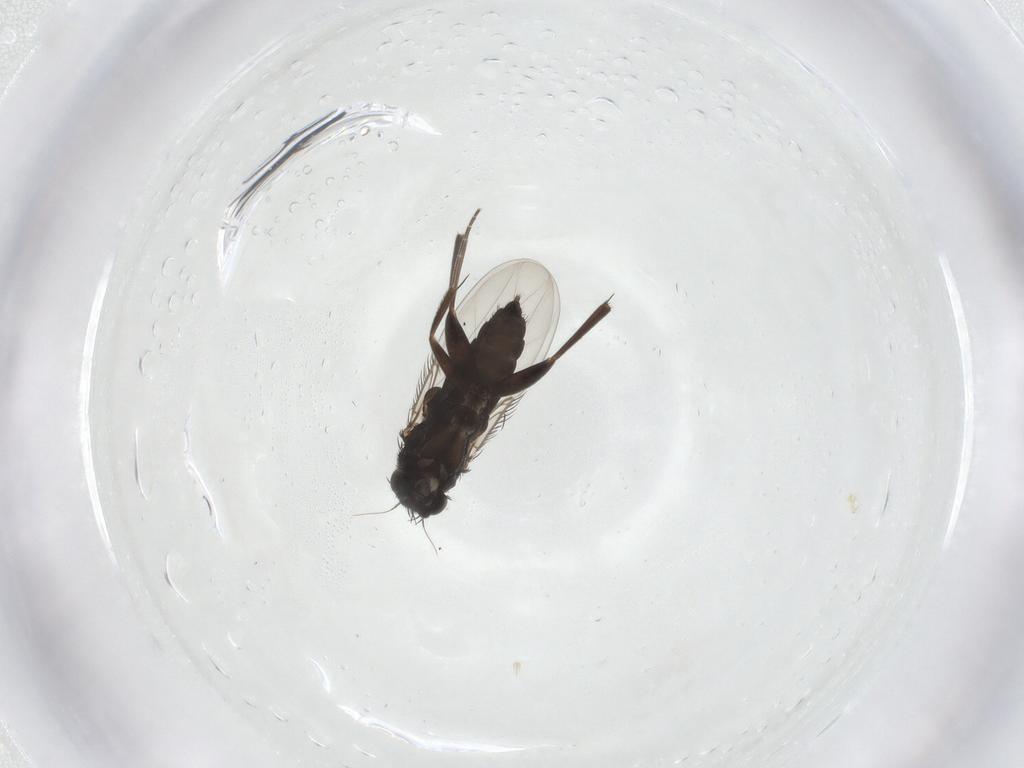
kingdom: Animalia
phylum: Arthropoda
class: Insecta
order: Diptera
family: Phoridae
